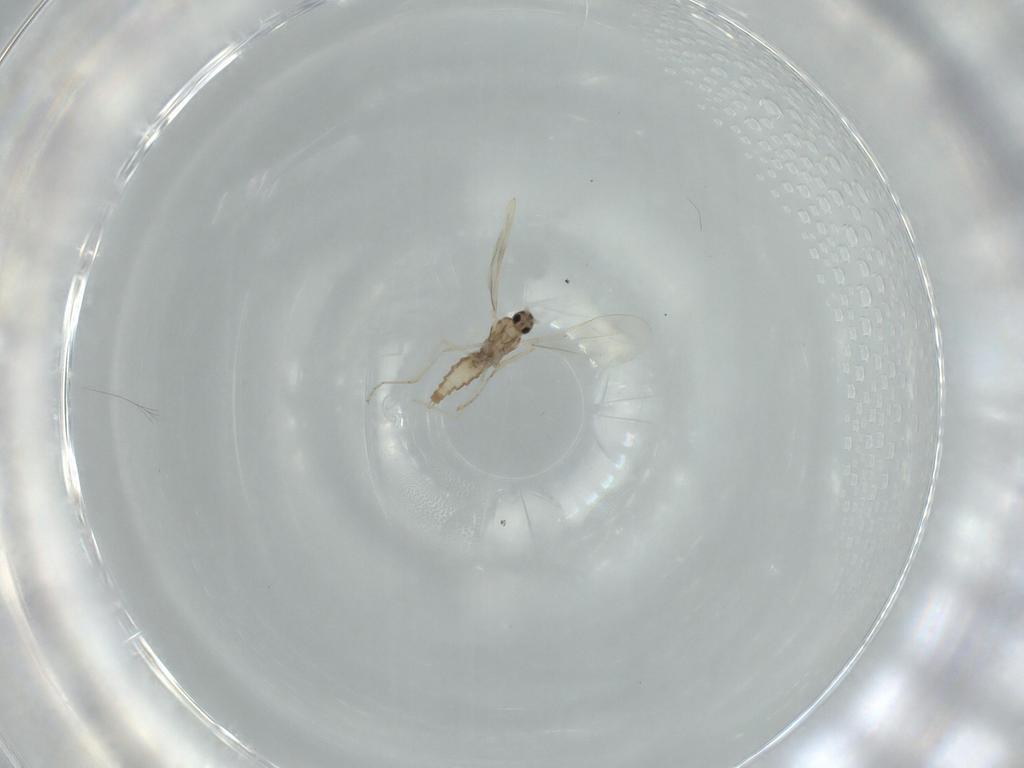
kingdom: Animalia
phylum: Arthropoda
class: Insecta
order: Diptera
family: Cecidomyiidae
